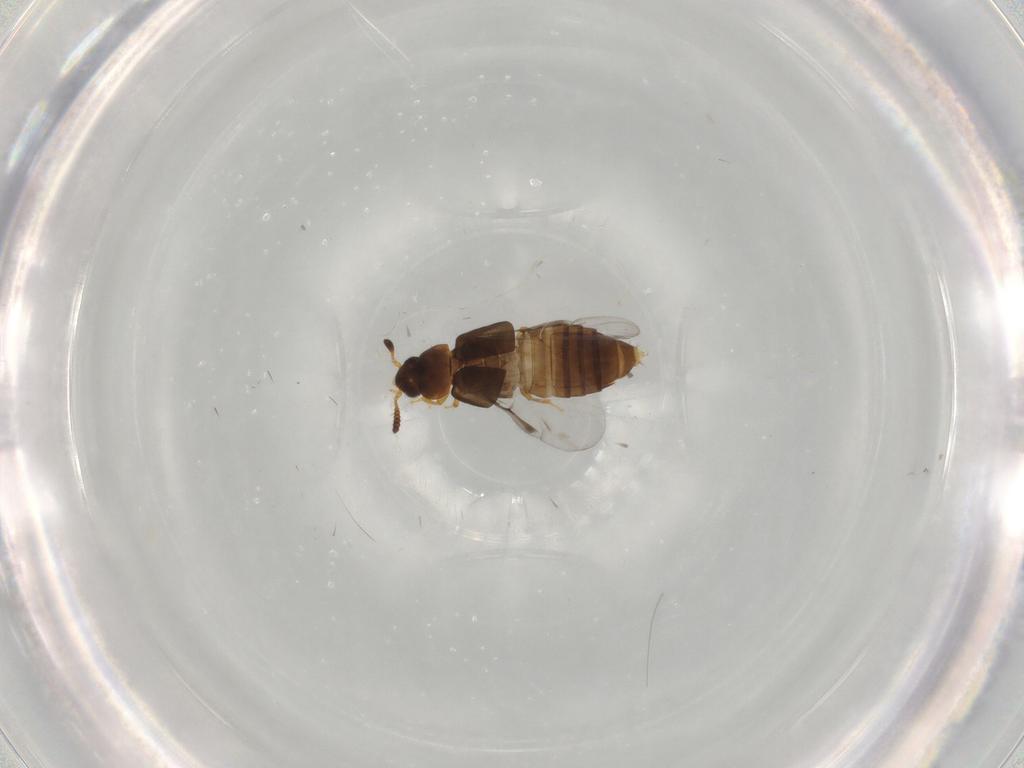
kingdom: Animalia
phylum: Arthropoda
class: Insecta
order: Coleoptera
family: Staphylinidae
